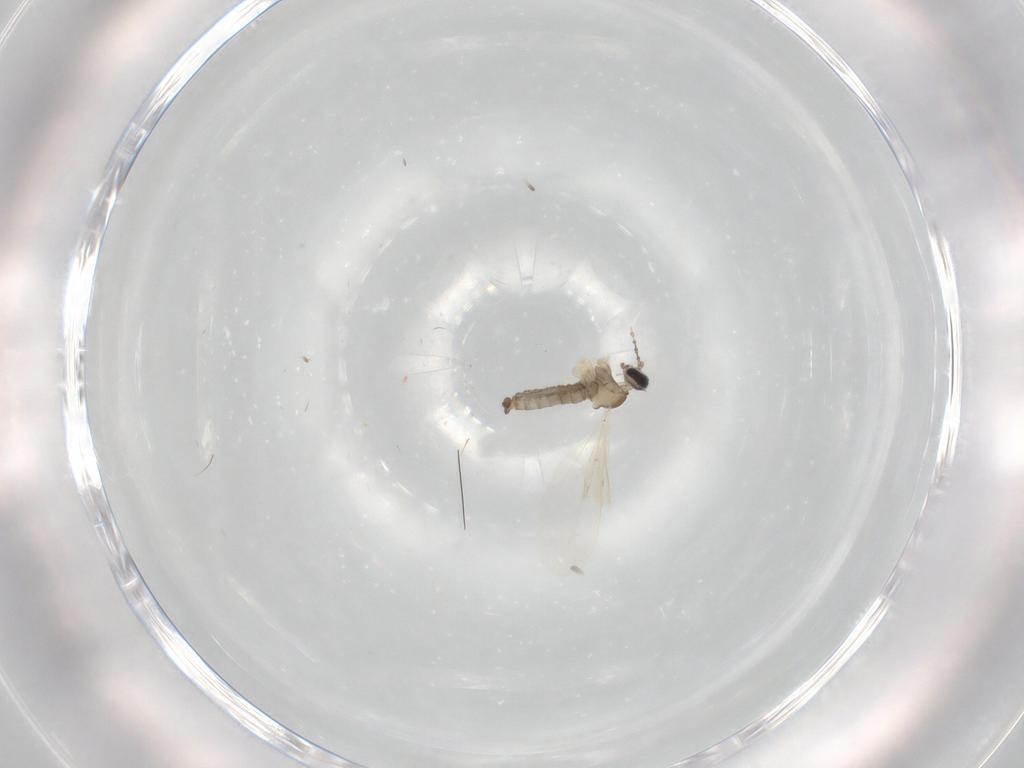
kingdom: Animalia
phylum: Arthropoda
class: Insecta
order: Diptera
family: Cecidomyiidae
